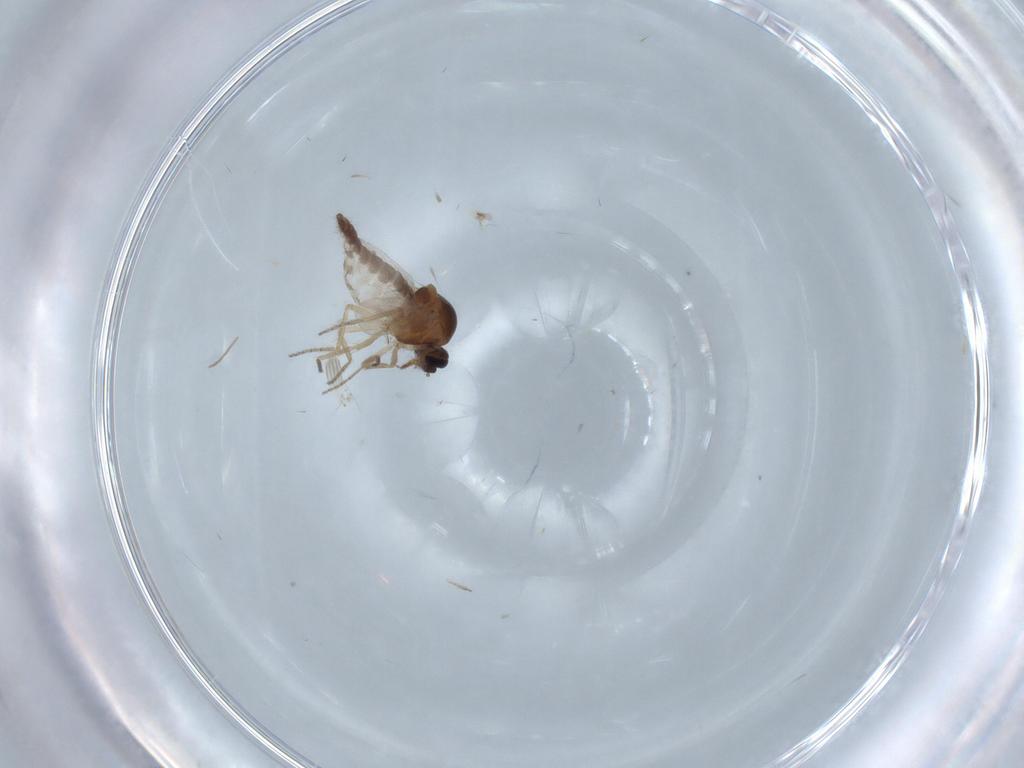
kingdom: Animalia
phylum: Arthropoda
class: Insecta
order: Diptera
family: Ceratopogonidae
